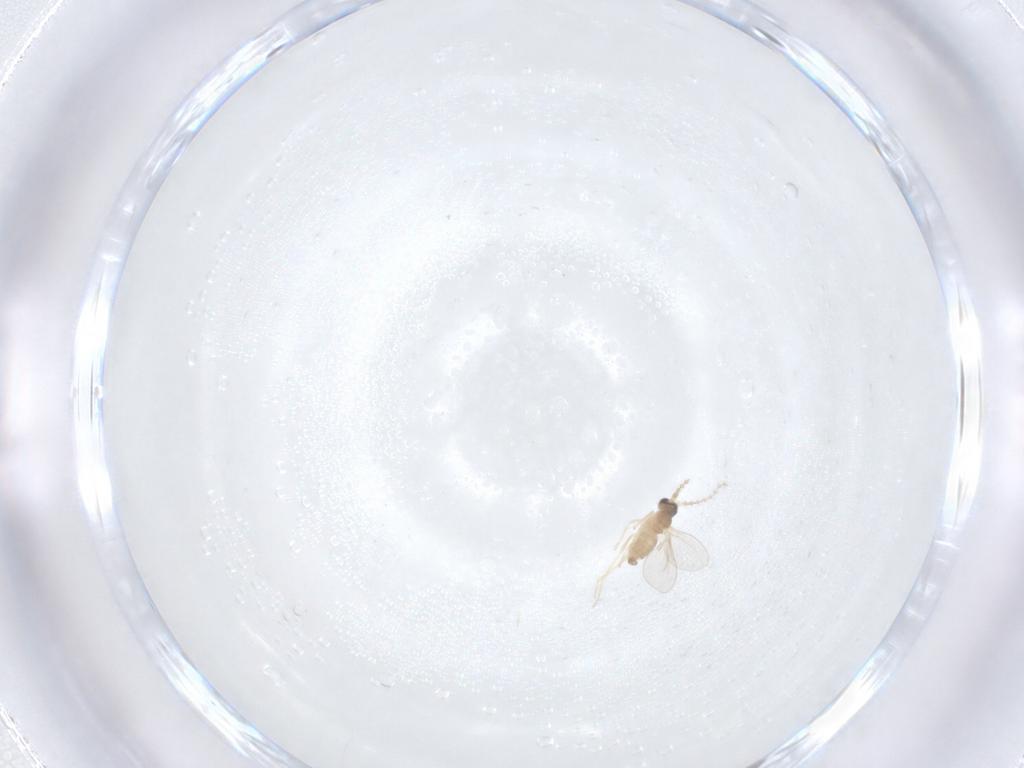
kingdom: Animalia
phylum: Arthropoda
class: Insecta
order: Diptera
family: Cecidomyiidae
